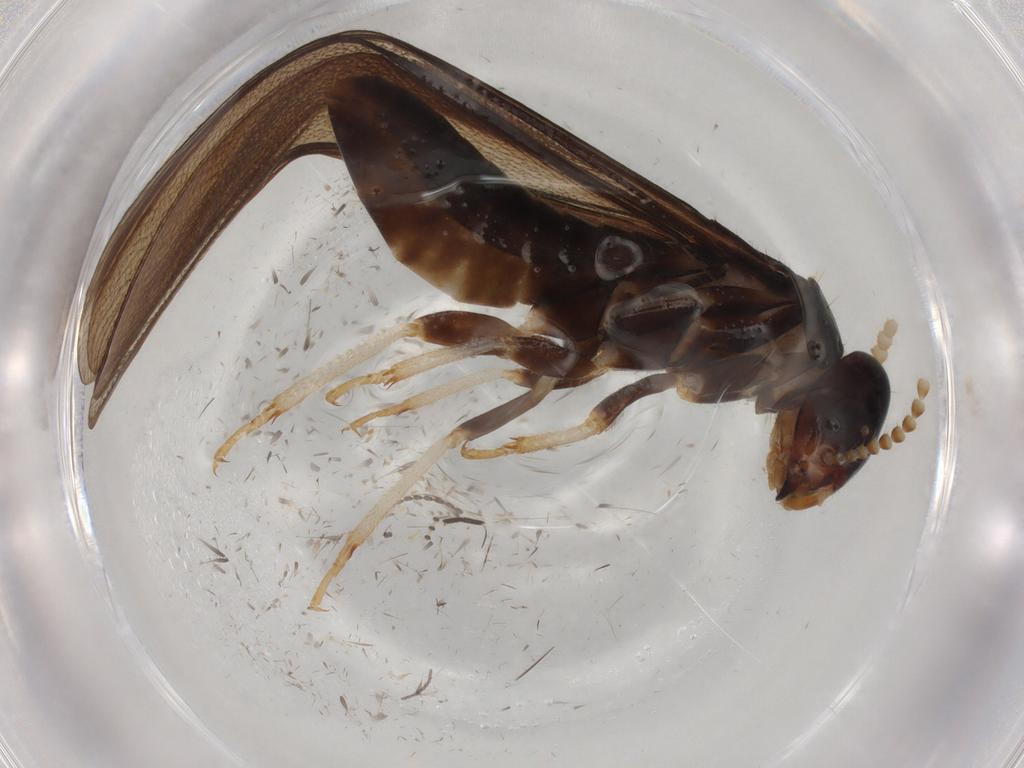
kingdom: Animalia
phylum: Arthropoda
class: Insecta
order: Blattodea
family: Kalotermitidae
